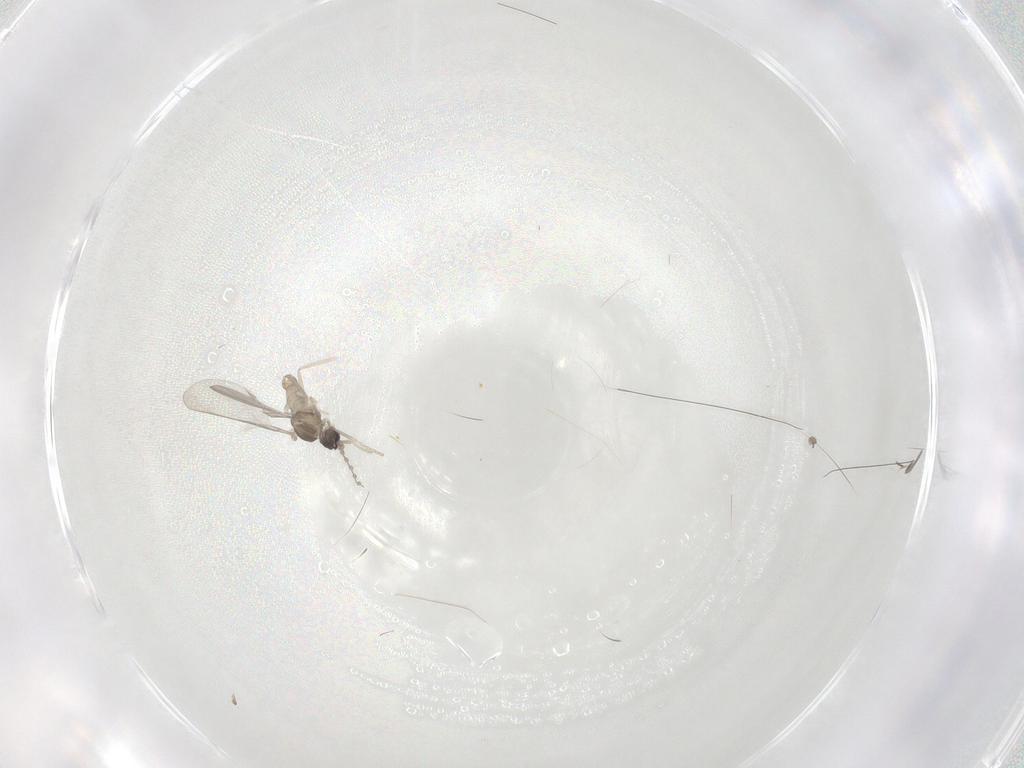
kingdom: Animalia
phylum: Arthropoda
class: Insecta
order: Diptera
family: Cecidomyiidae
